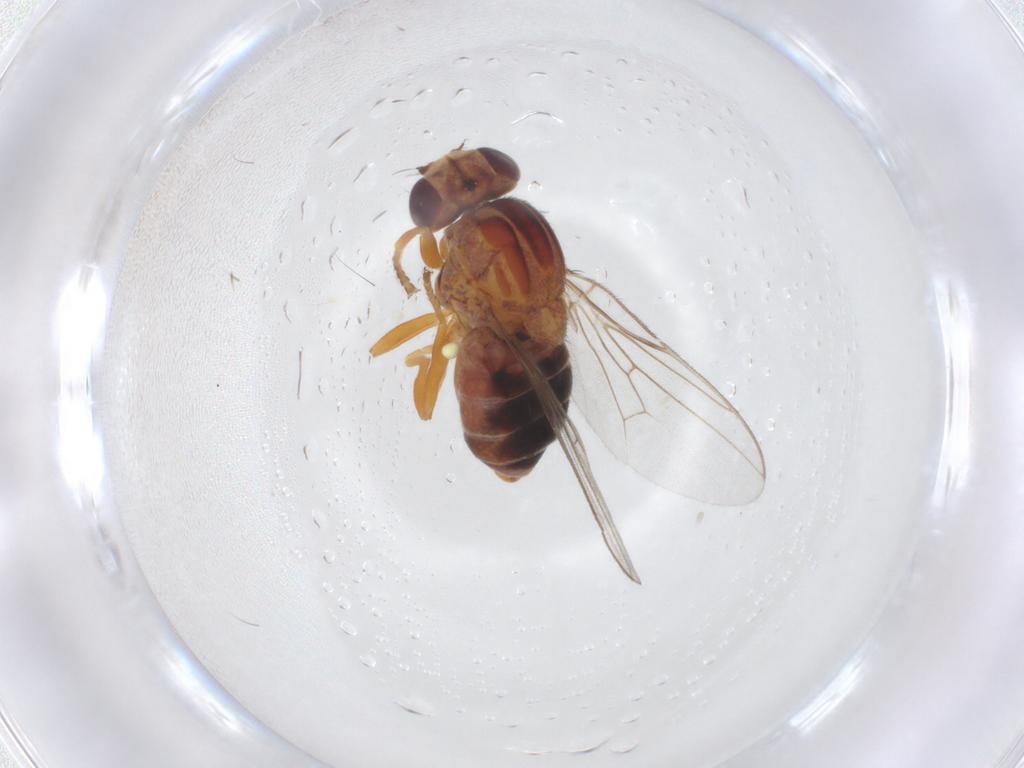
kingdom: Animalia
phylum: Arthropoda
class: Insecta
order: Diptera
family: Chloropidae
